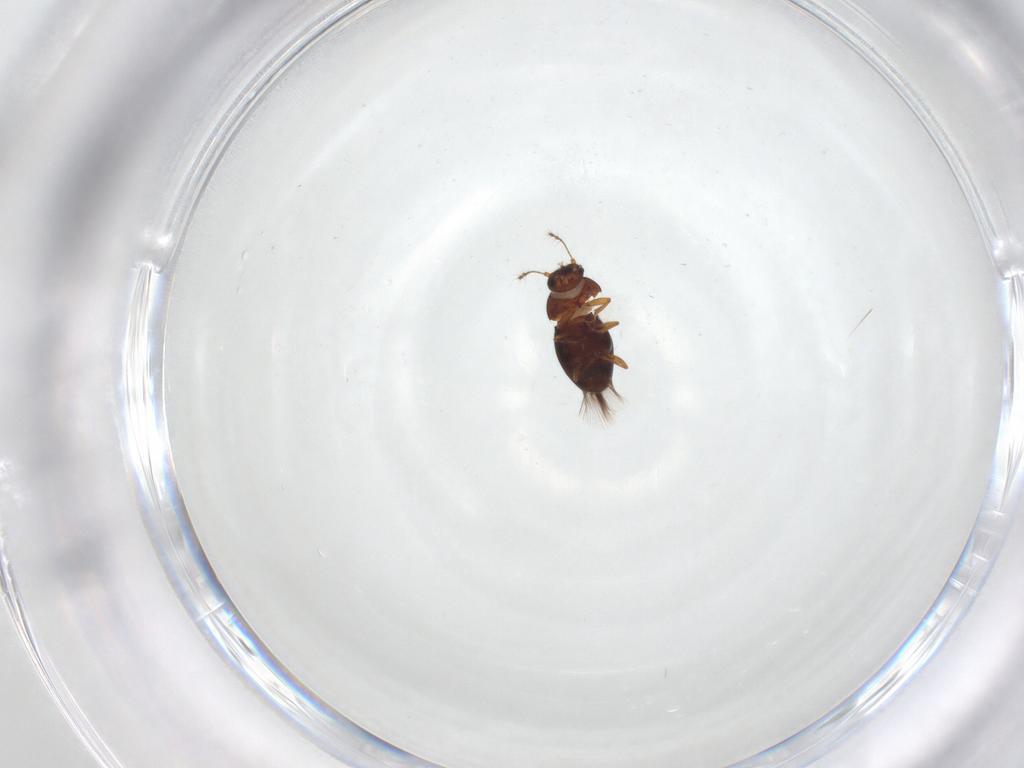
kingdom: Animalia
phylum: Arthropoda
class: Insecta
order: Coleoptera
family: Ptiliidae
